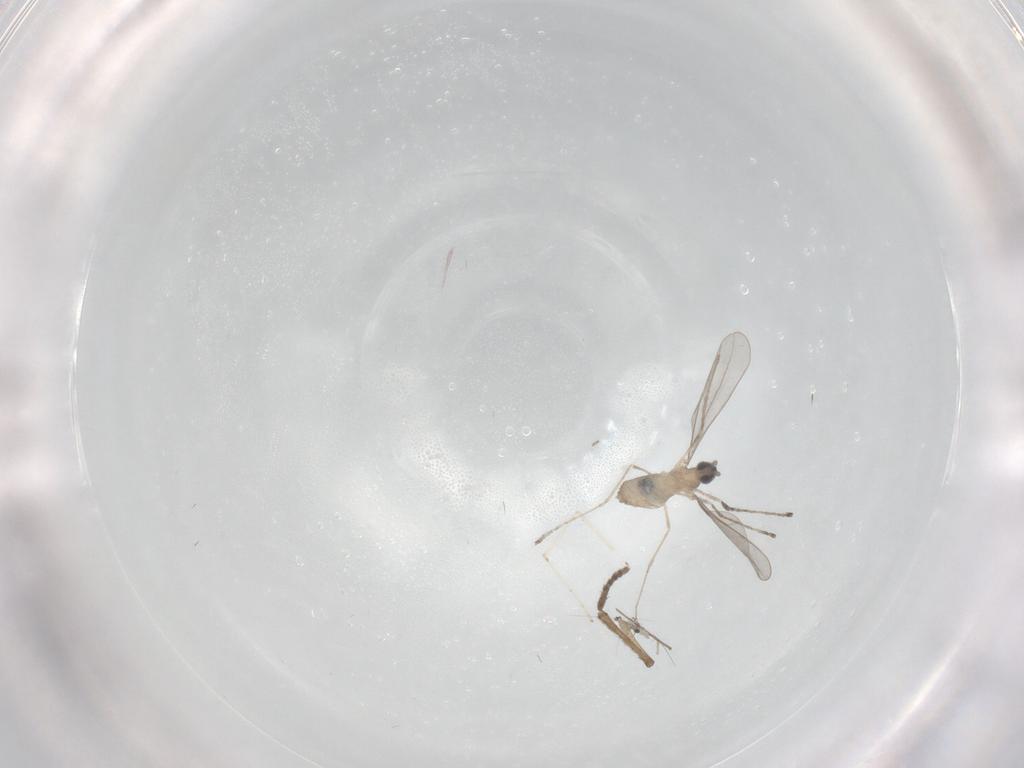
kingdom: Animalia
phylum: Arthropoda
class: Insecta
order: Diptera
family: Cecidomyiidae
